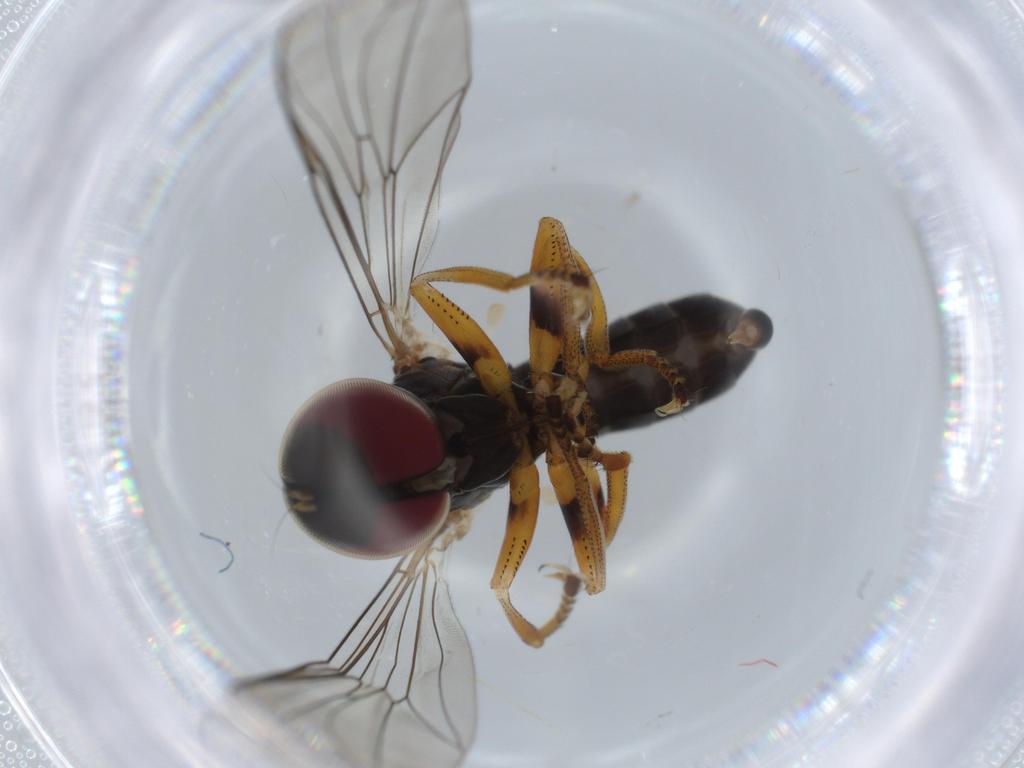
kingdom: Animalia
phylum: Arthropoda
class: Insecta
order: Diptera
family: Pipunculidae
